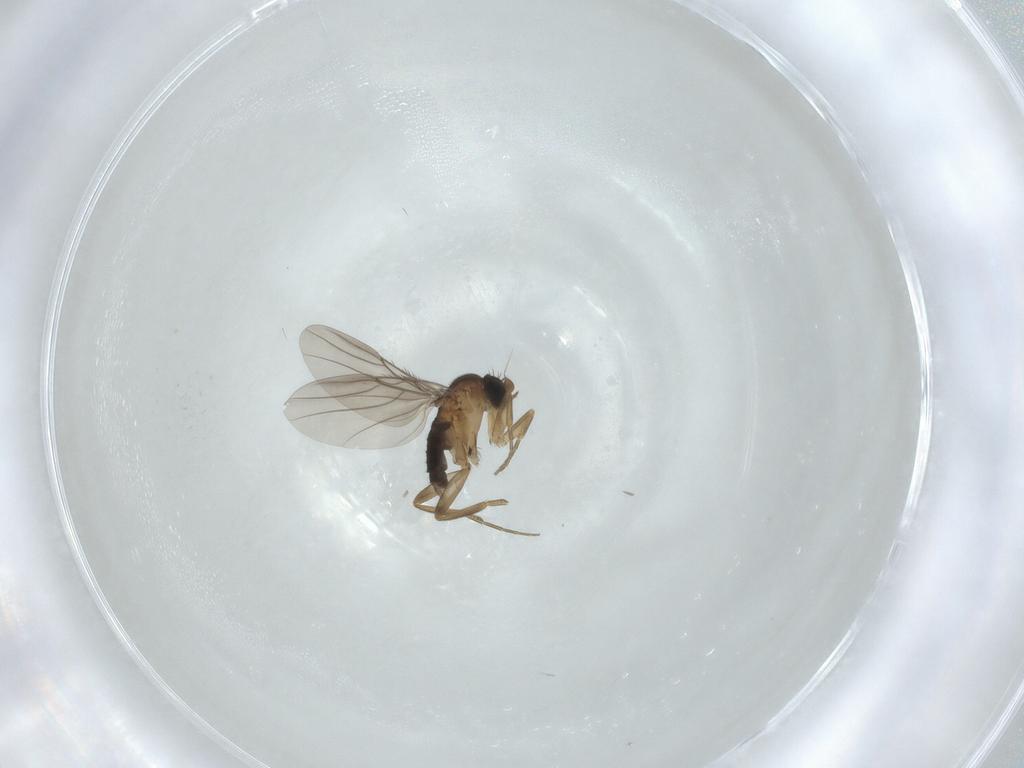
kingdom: Animalia
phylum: Arthropoda
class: Insecta
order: Diptera
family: Phoridae
